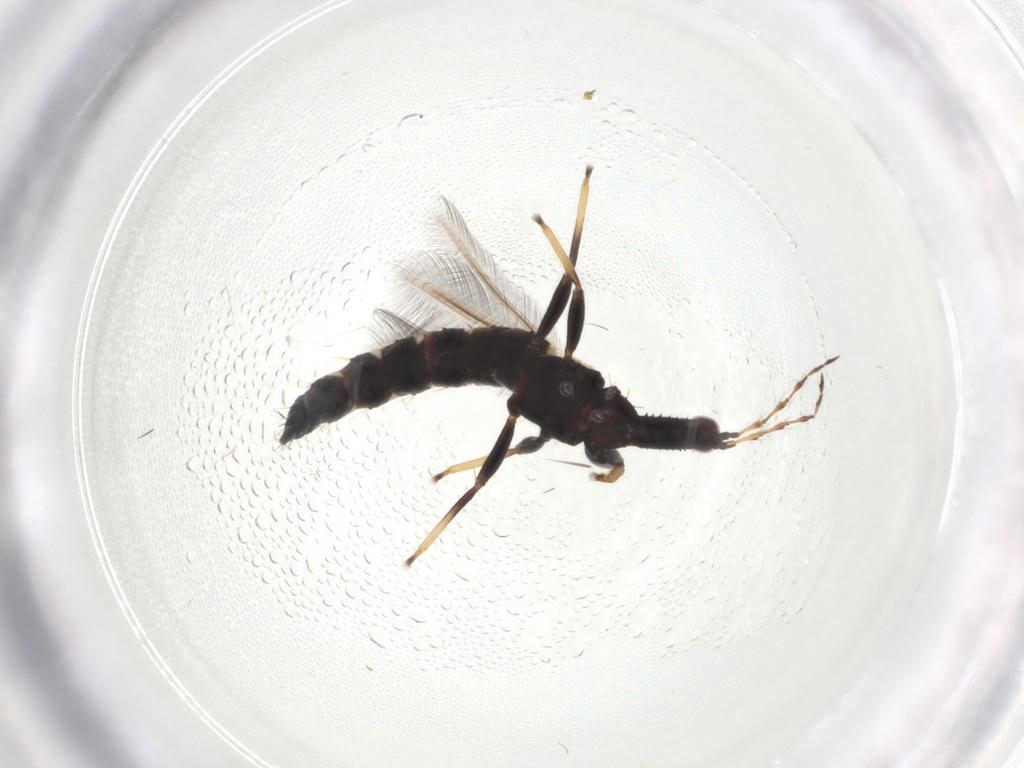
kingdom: Animalia
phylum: Arthropoda
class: Insecta
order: Thysanoptera
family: Phlaeothripidae
